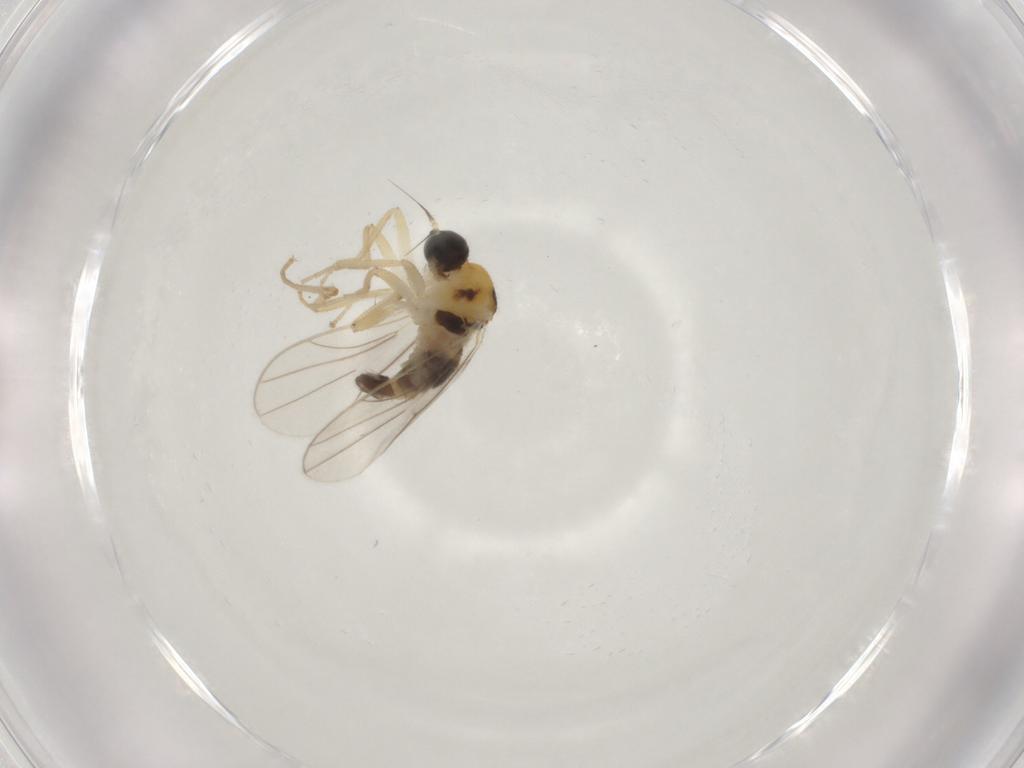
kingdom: Animalia
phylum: Arthropoda
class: Insecta
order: Diptera
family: Hybotidae
